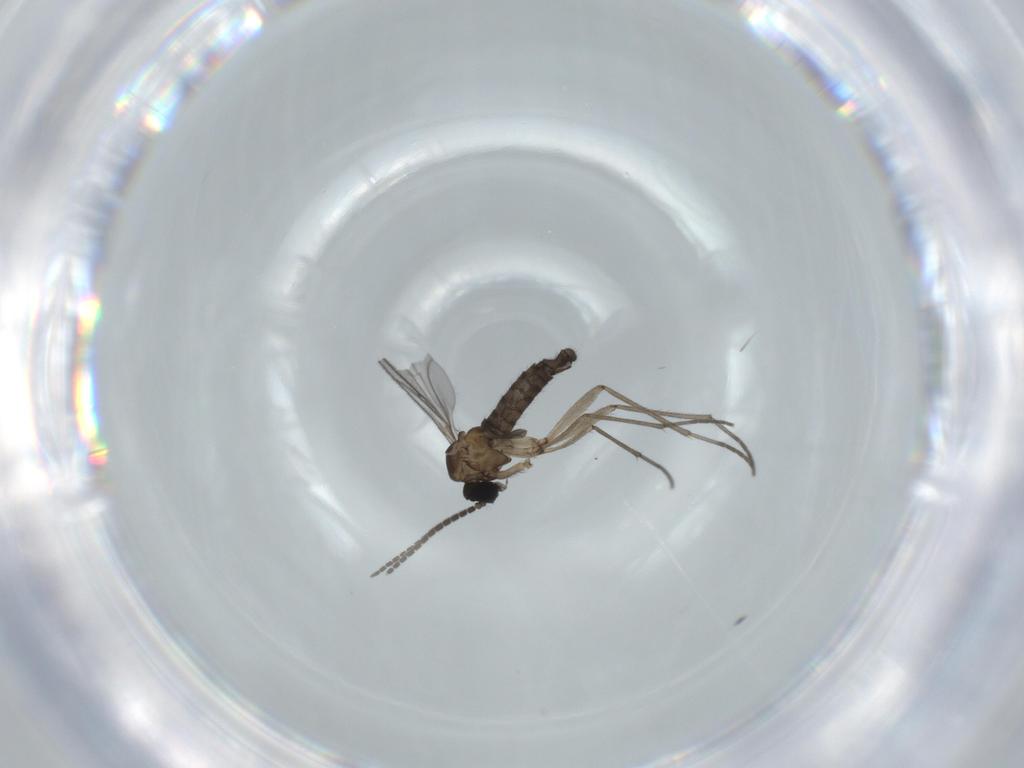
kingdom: Animalia
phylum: Arthropoda
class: Insecta
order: Diptera
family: Sciaridae
